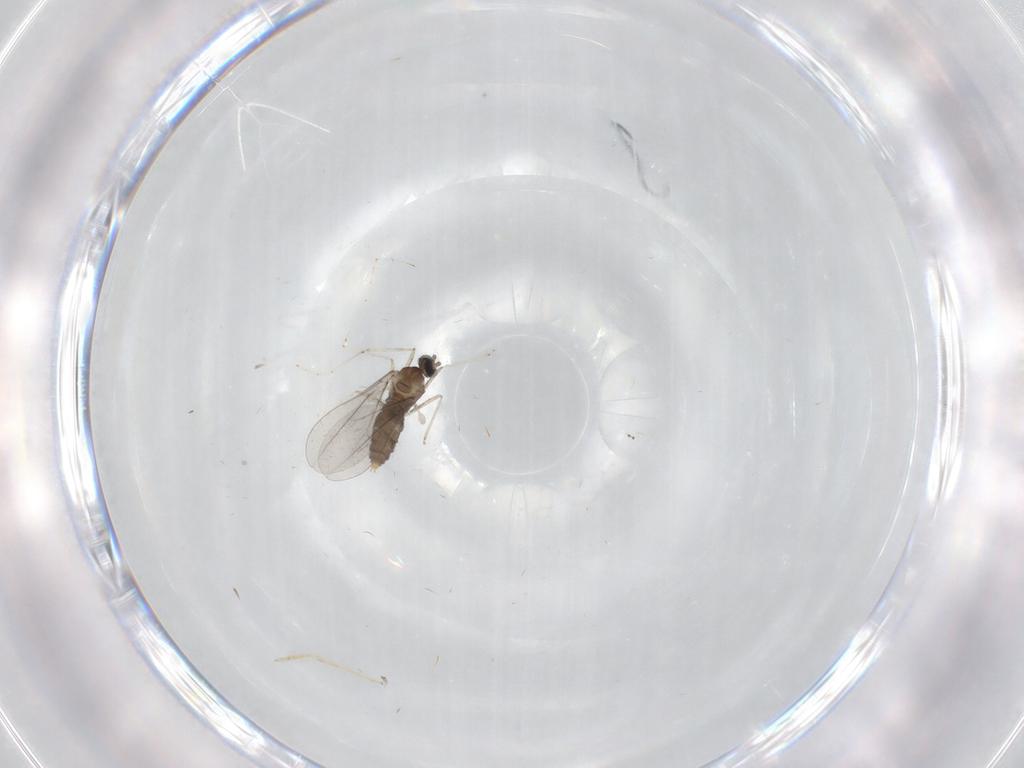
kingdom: Animalia
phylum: Arthropoda
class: Insecta
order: Diptera
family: Cecidomyiidae
